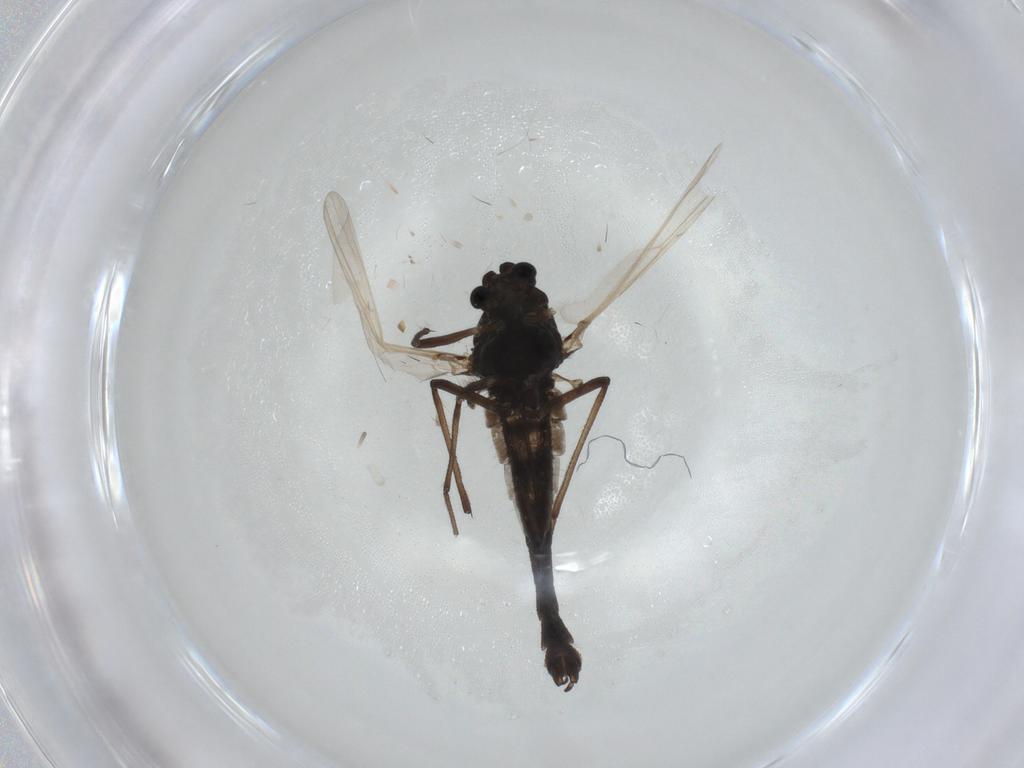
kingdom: Animalia
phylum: Arthropoda
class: Insecta
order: Diptera
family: Chironomidae
